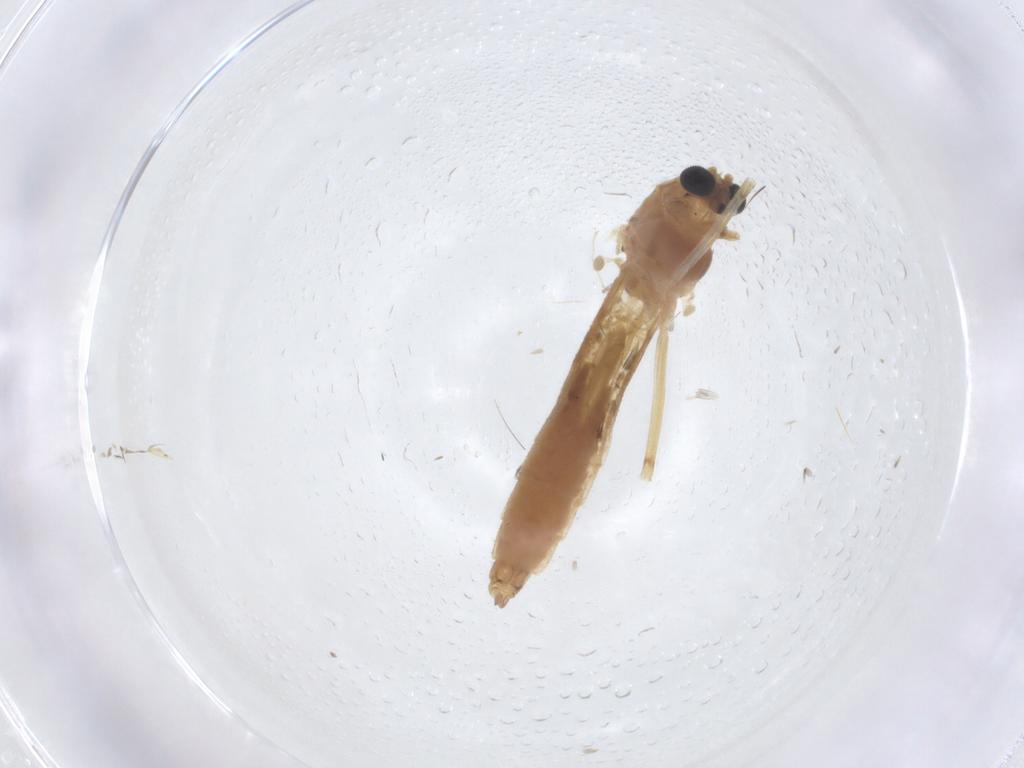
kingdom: Animalia
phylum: Arthropoda
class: Insecta
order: Diptera
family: Chironomidae
